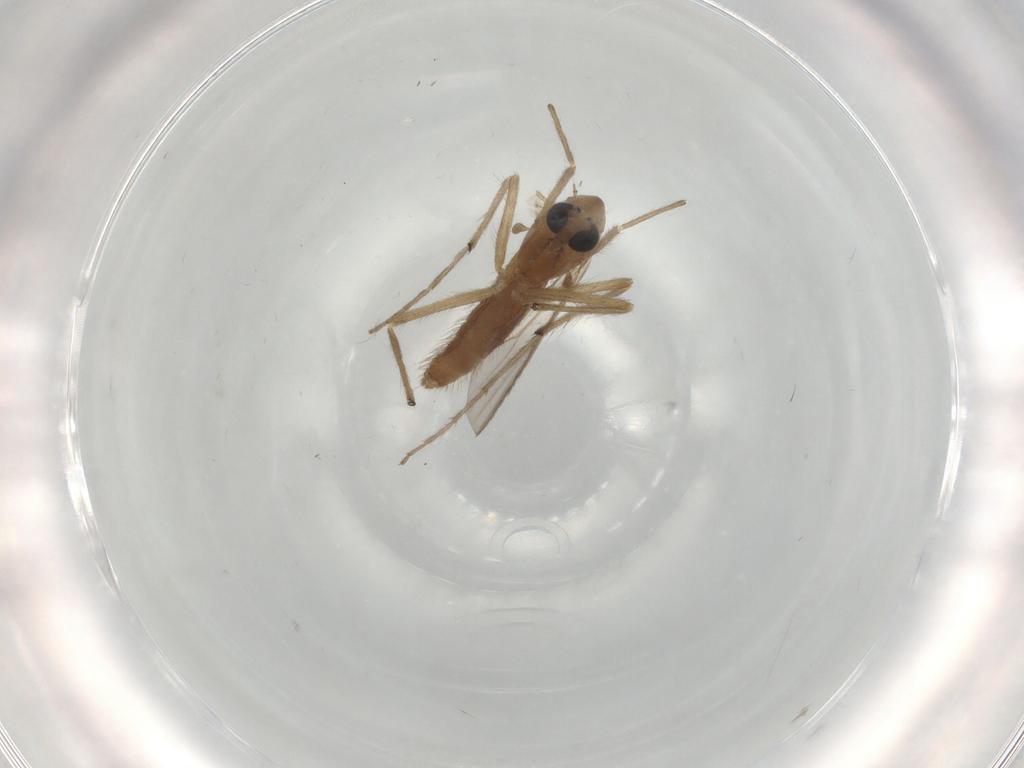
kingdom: Animalia
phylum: Arthropoda
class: Insecta
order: Diptera
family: Chironomidae
